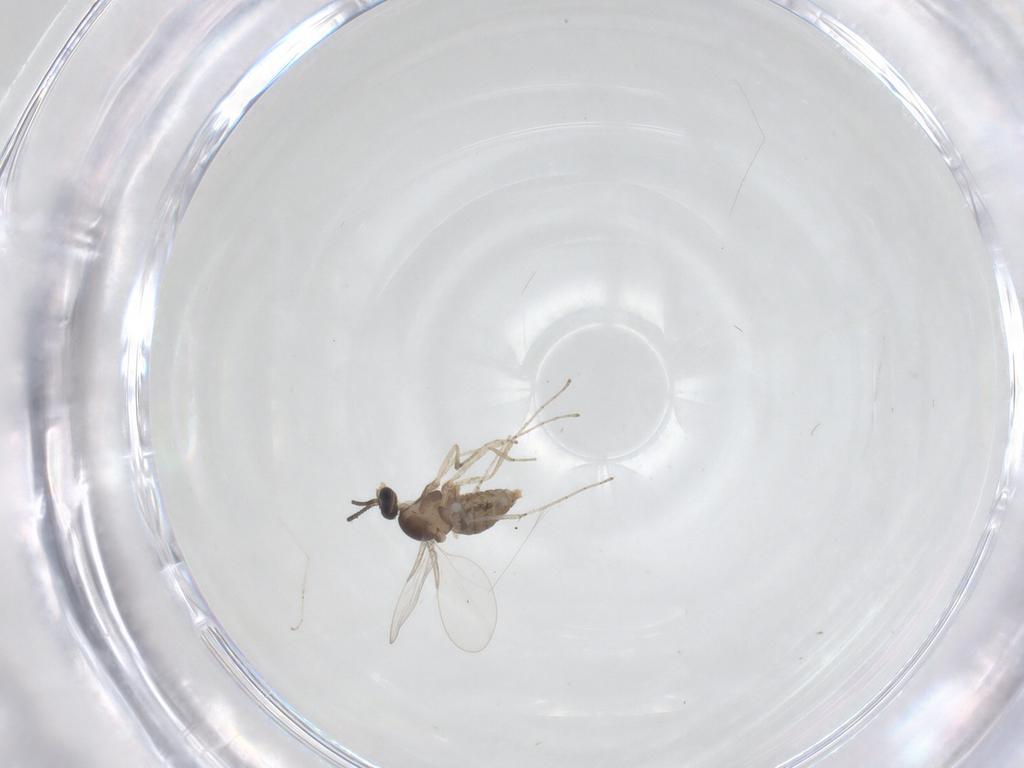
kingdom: Animalia
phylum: Arthropoda
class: Insecta
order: Diptera
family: Cecidomyiidae
